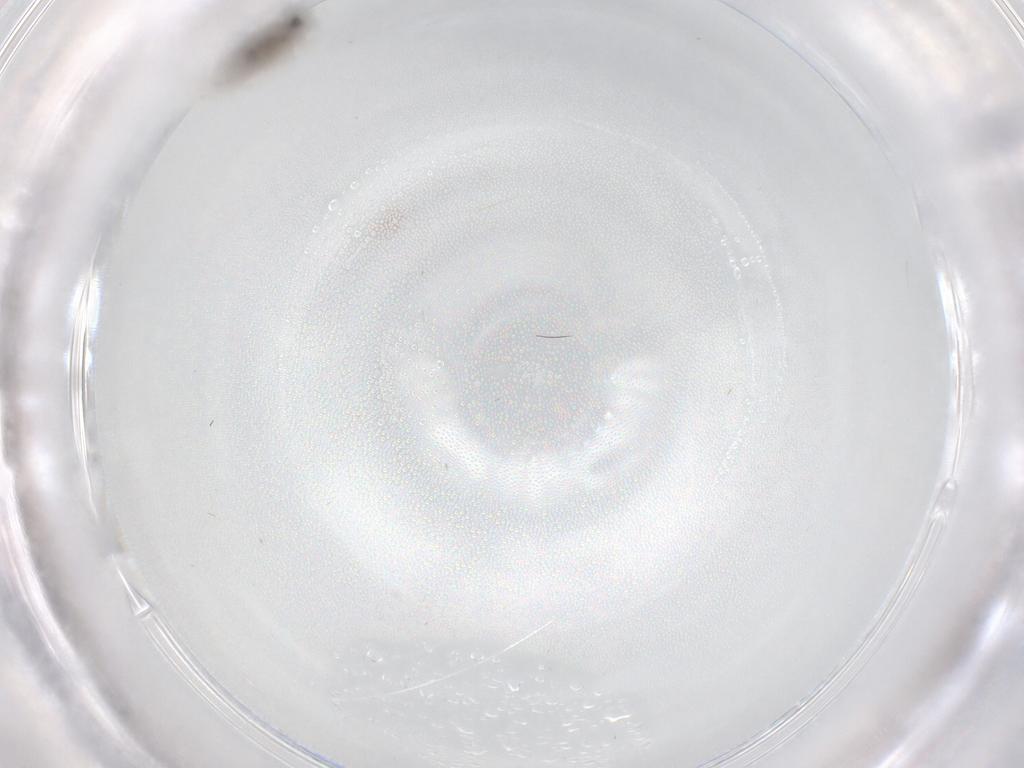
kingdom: Animalia
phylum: Arthropoda
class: Insecta
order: Diptera
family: Cecidomyiidae
